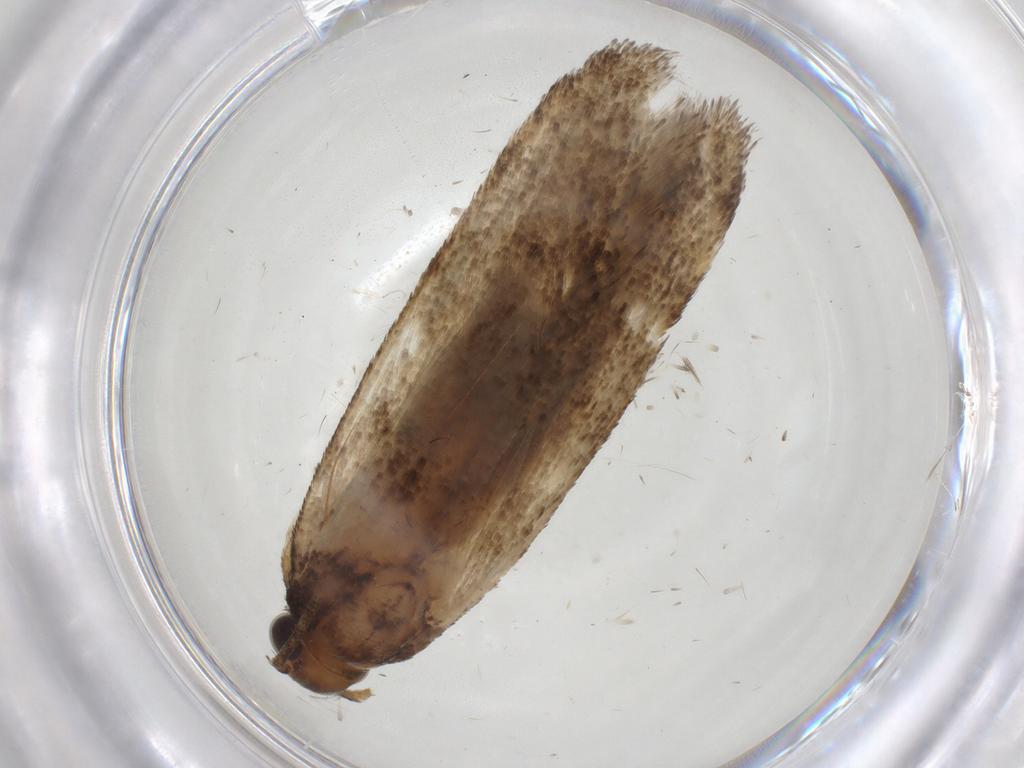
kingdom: Animalia
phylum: Arthropoda
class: Insecta
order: Lepidoptera
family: Gelechiidae
